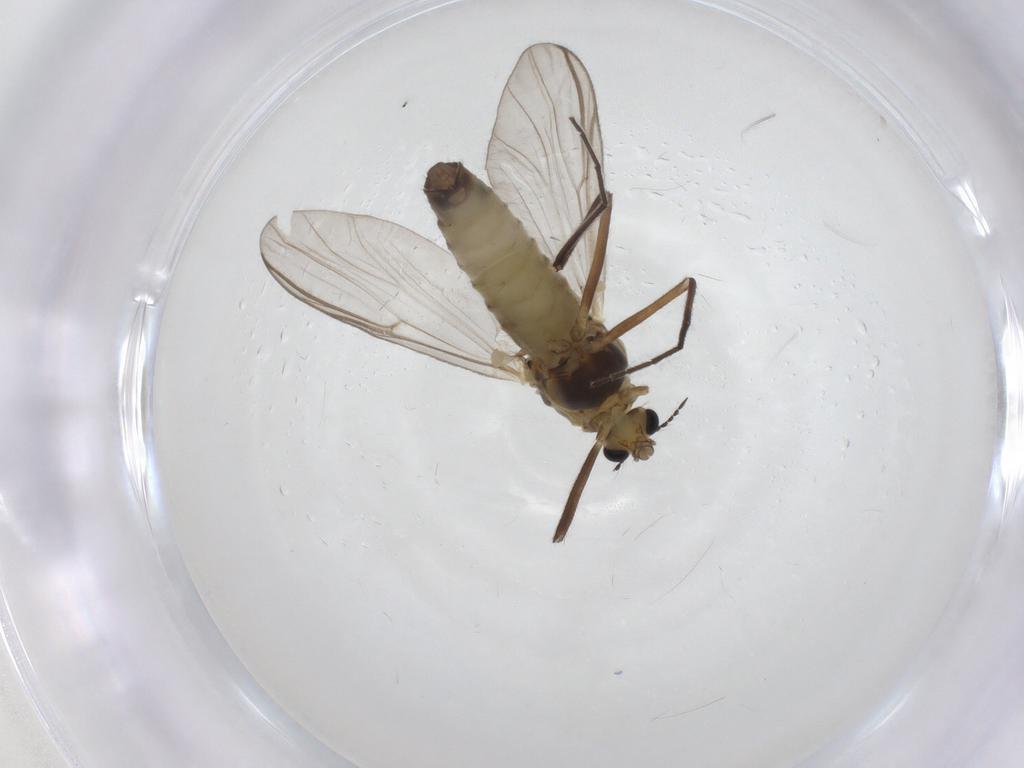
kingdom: Animalia
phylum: Arthropoda
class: Insecta
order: Diptera
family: Chironomidae
